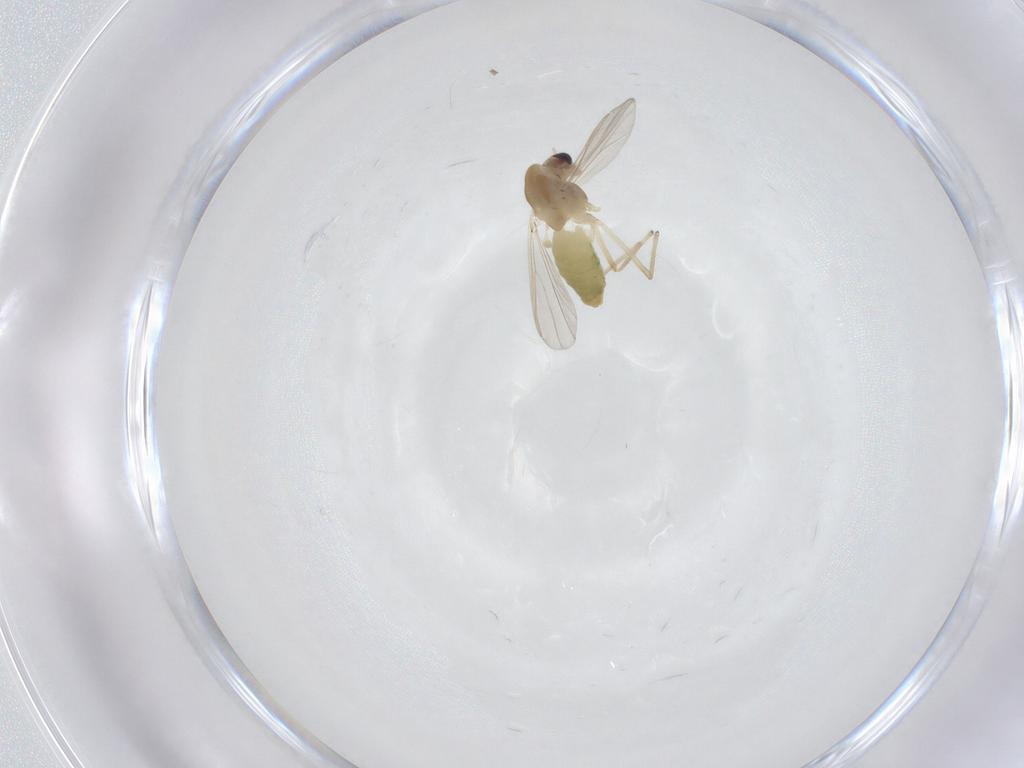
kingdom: Animalia
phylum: Arthropoda
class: Insecta
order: Diptera
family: Chironomidae
